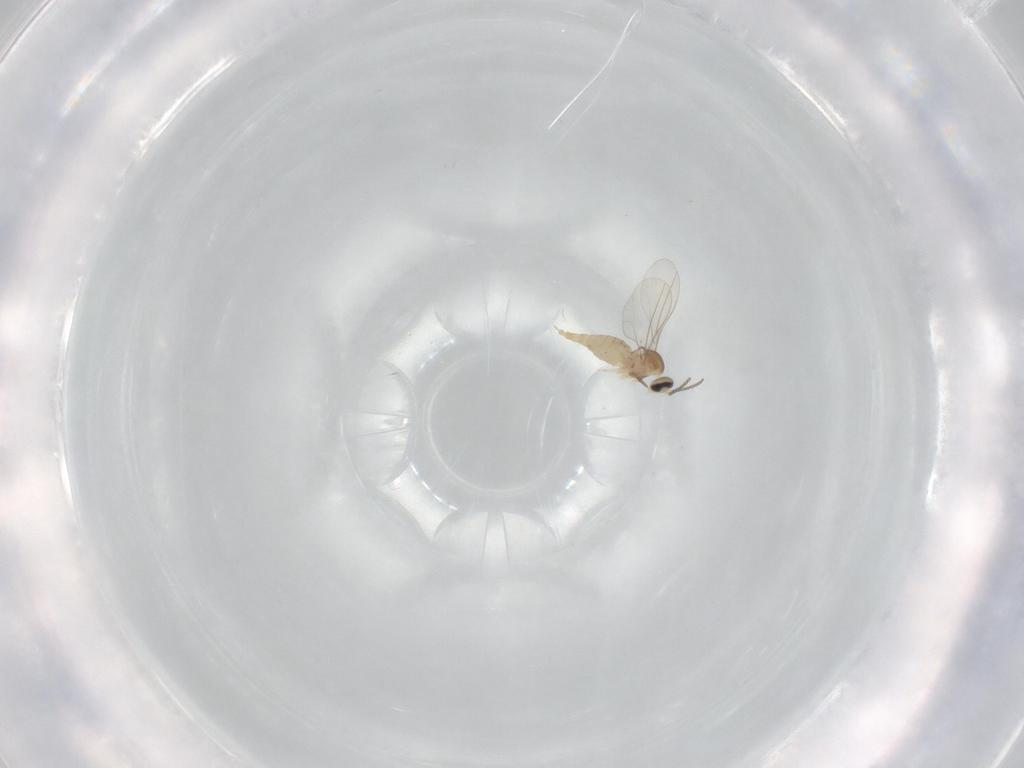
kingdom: Animalia
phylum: Arthropoda
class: Insecta
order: Diptera
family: Cecidomyiidae
